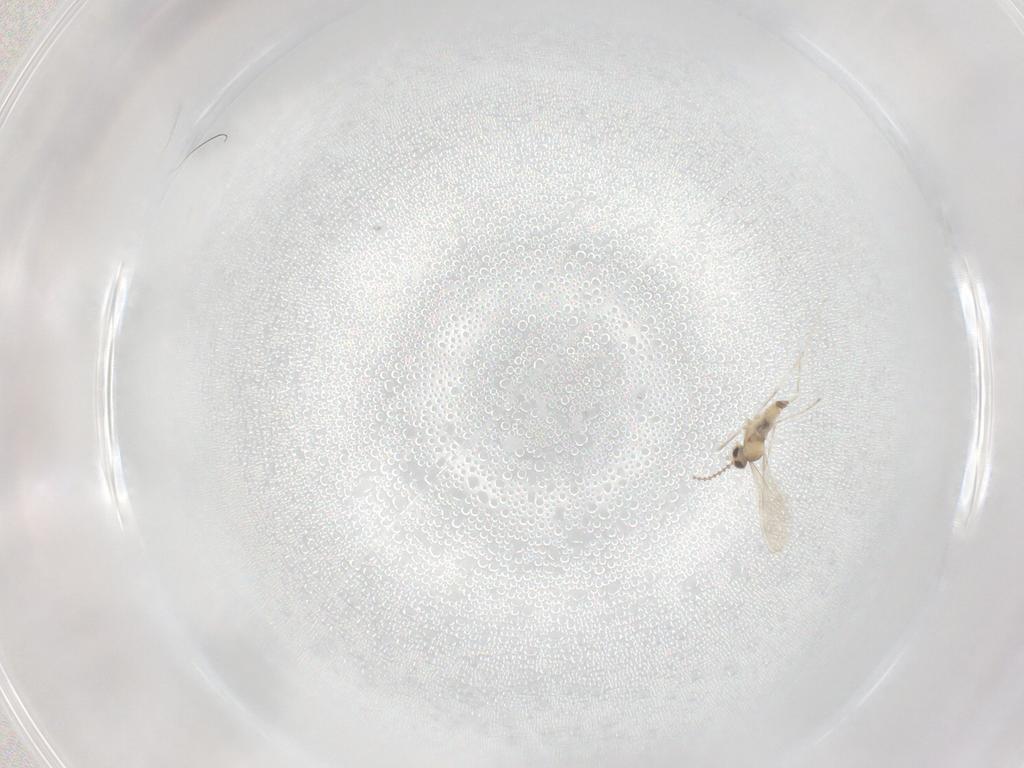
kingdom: Animalia
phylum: Arthropoda
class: Insecta
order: Diptera
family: Cecidomyiidae
